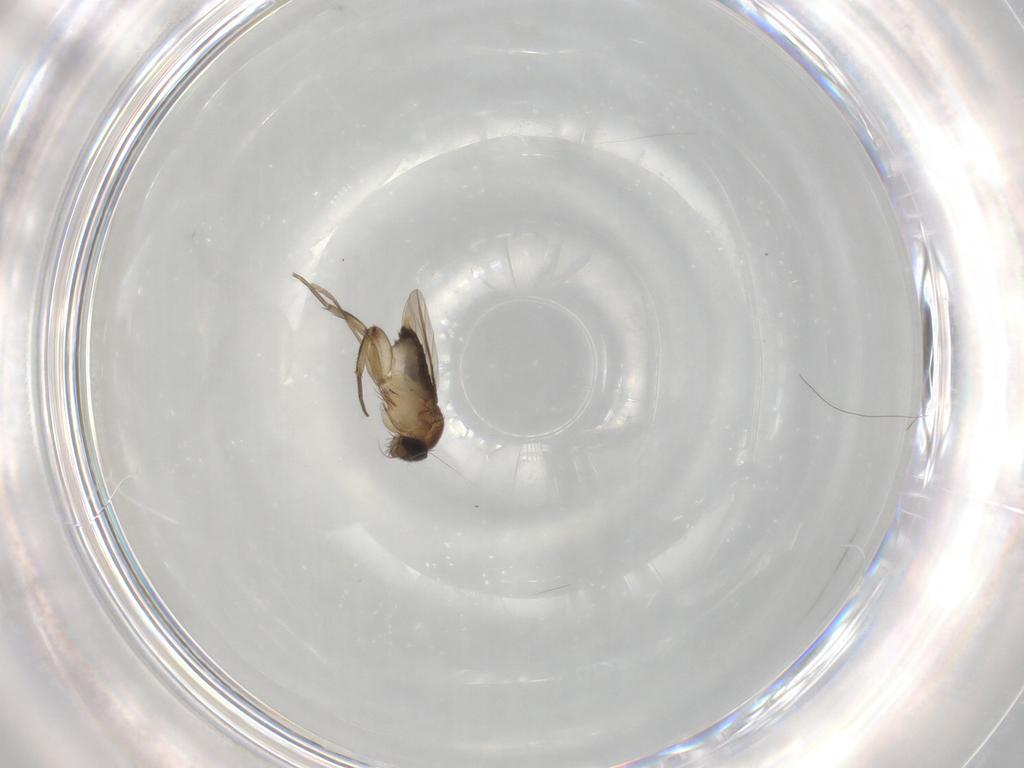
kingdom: Animalia
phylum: Arthropoda
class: Insecta
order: Diptera
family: Phoridae
